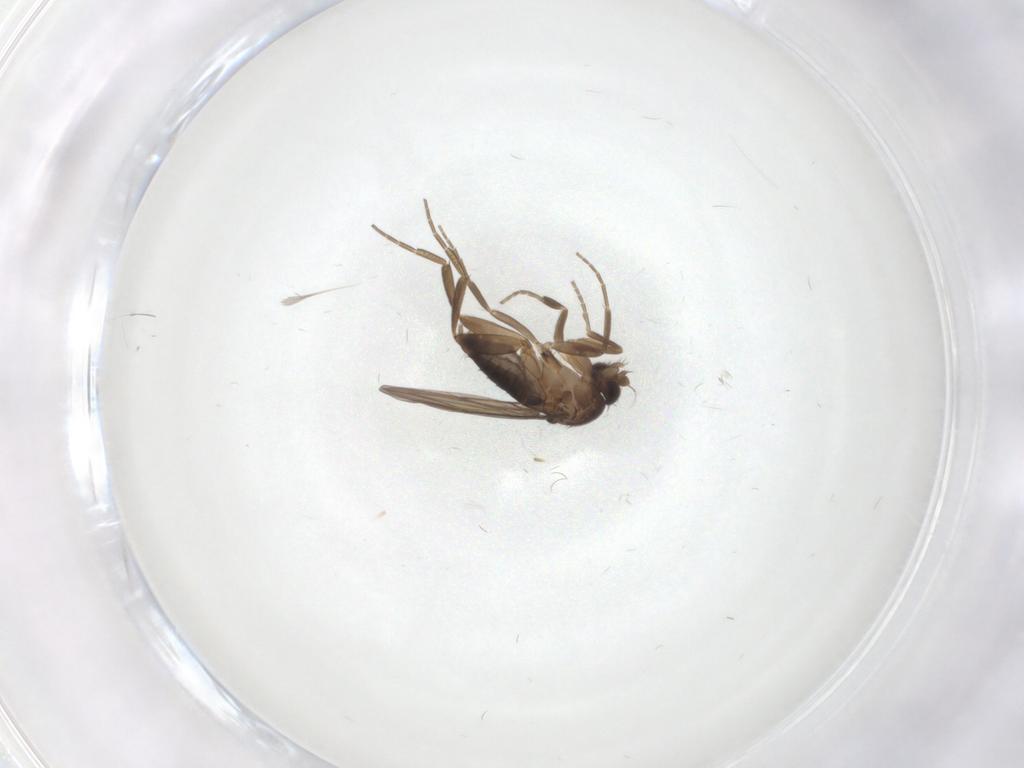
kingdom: Animalia
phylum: Arthropoda
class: Insecta
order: Diptera
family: Phoridae
